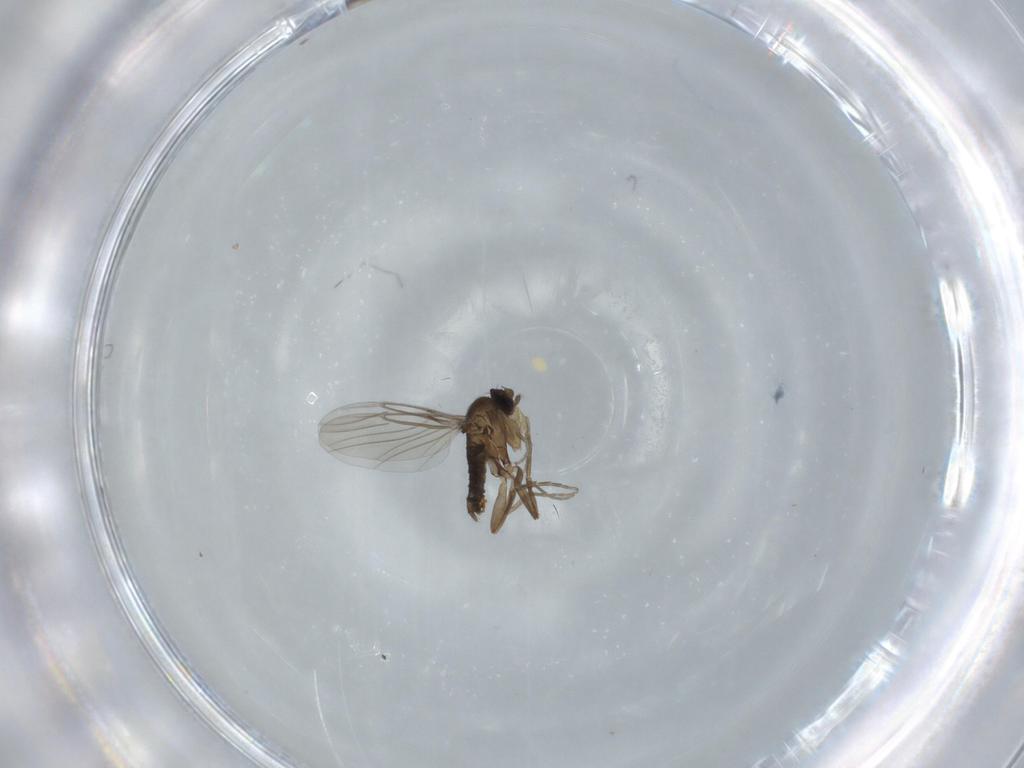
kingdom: Animalia
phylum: Arthropoda
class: Insecta
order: Diptera
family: Phoridae
